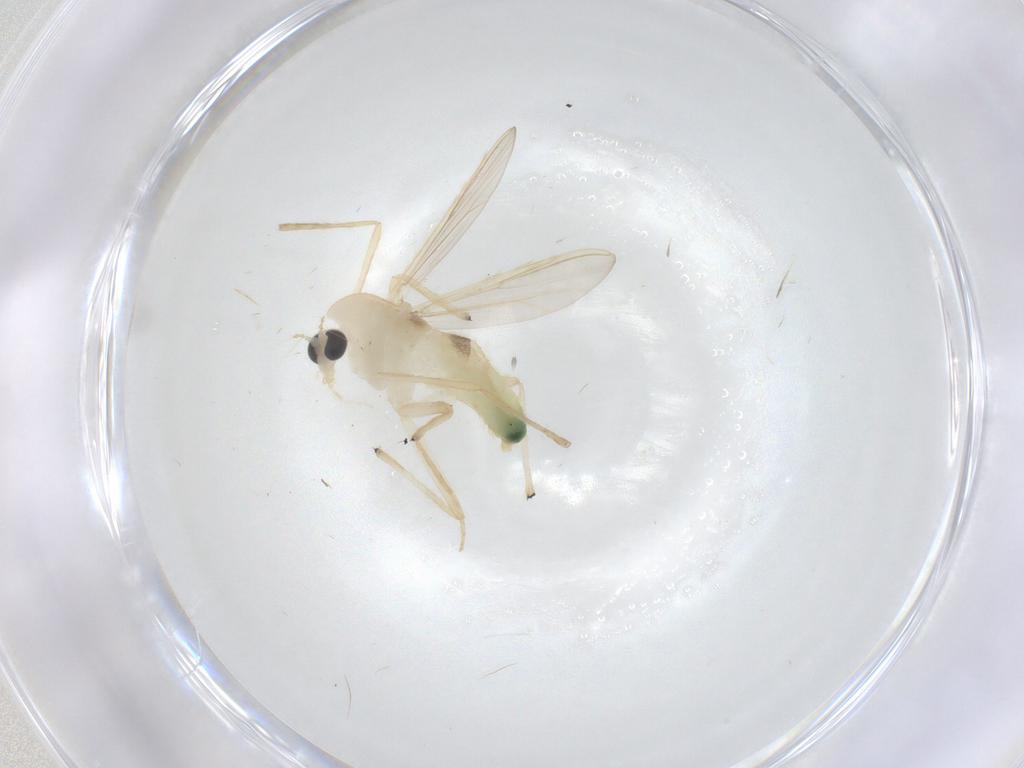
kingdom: Animalia
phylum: Arthropoda
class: Insecta
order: Diptera
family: Chironomidae
